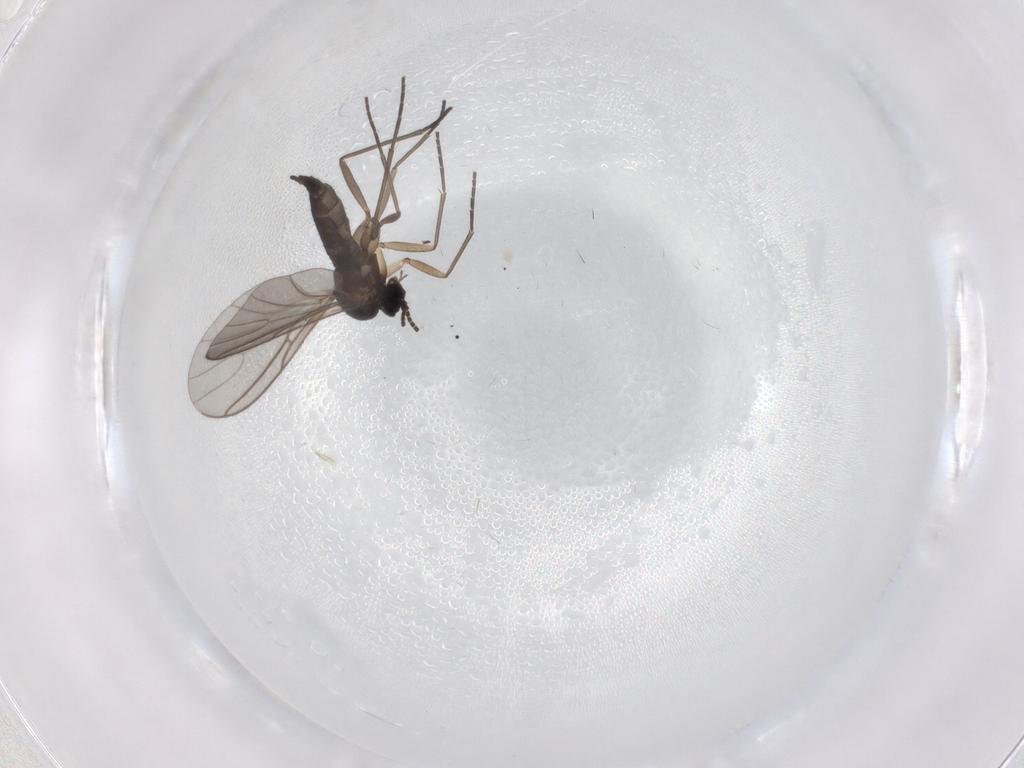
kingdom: Animalia
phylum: Arthropoda
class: Insecta
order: Diptera
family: Sciaridae
